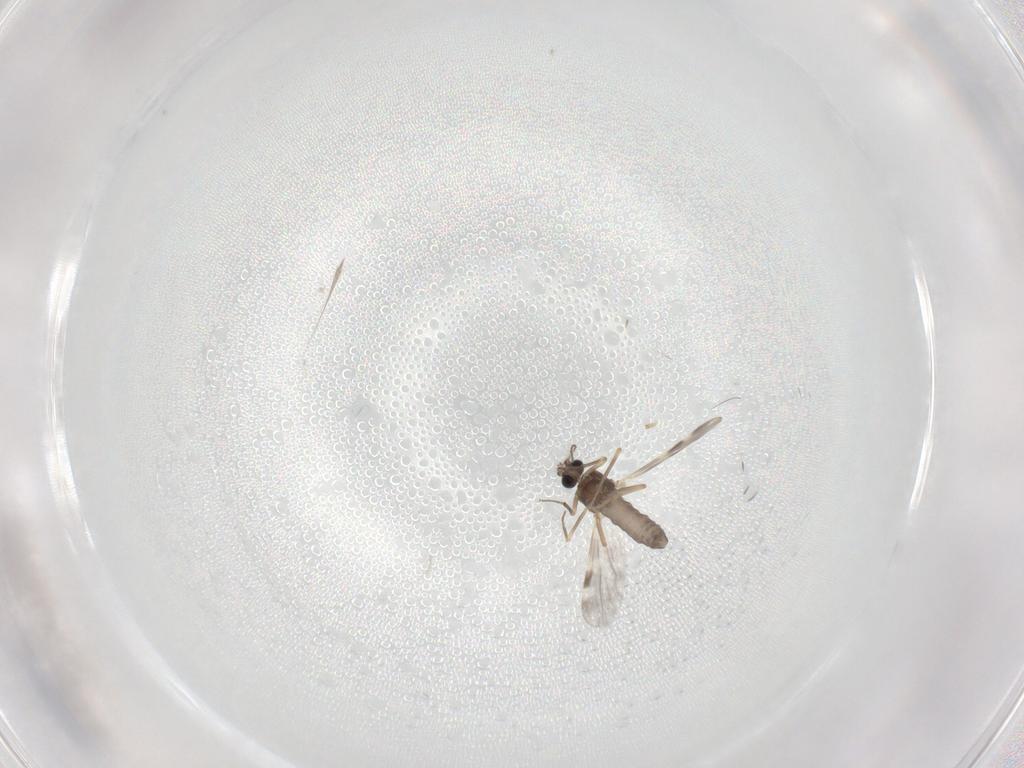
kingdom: Animalia
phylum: Arthropoda
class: Insecta
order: Diptera
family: Ceratopogonidae
